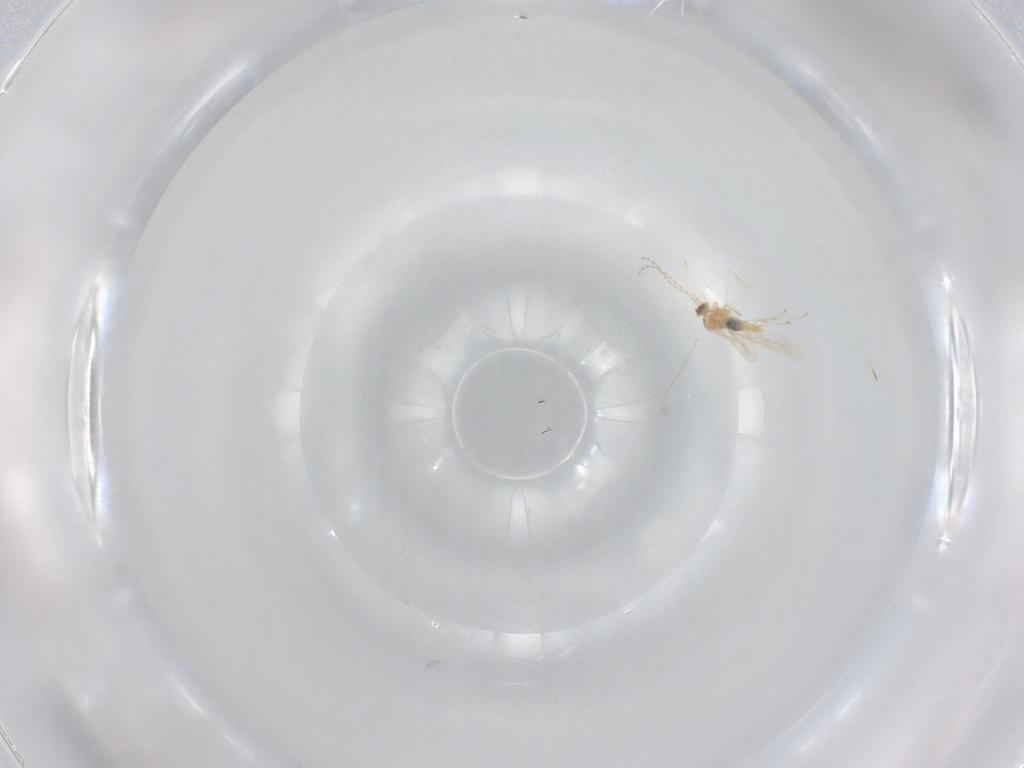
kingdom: Animalia
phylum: Arthropoda
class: Insecta
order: Diptera
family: Cecidomyiidae
